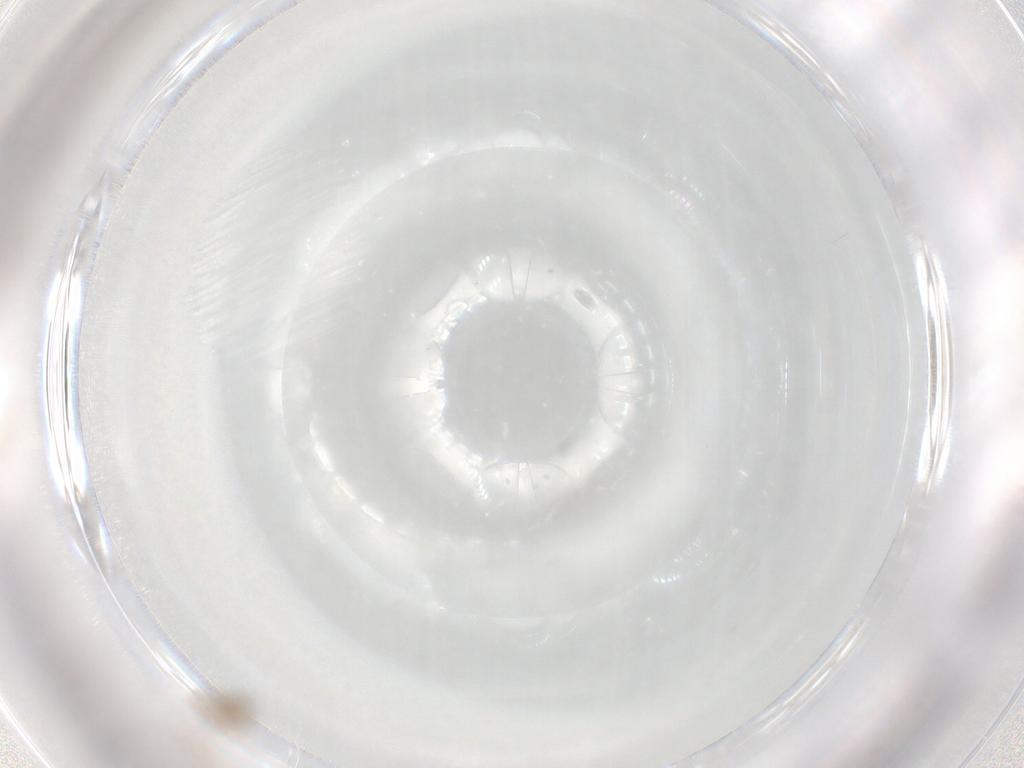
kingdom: Animalia
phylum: Arthropoda
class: Insecta
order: Diptera
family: Cecidomyiidae
